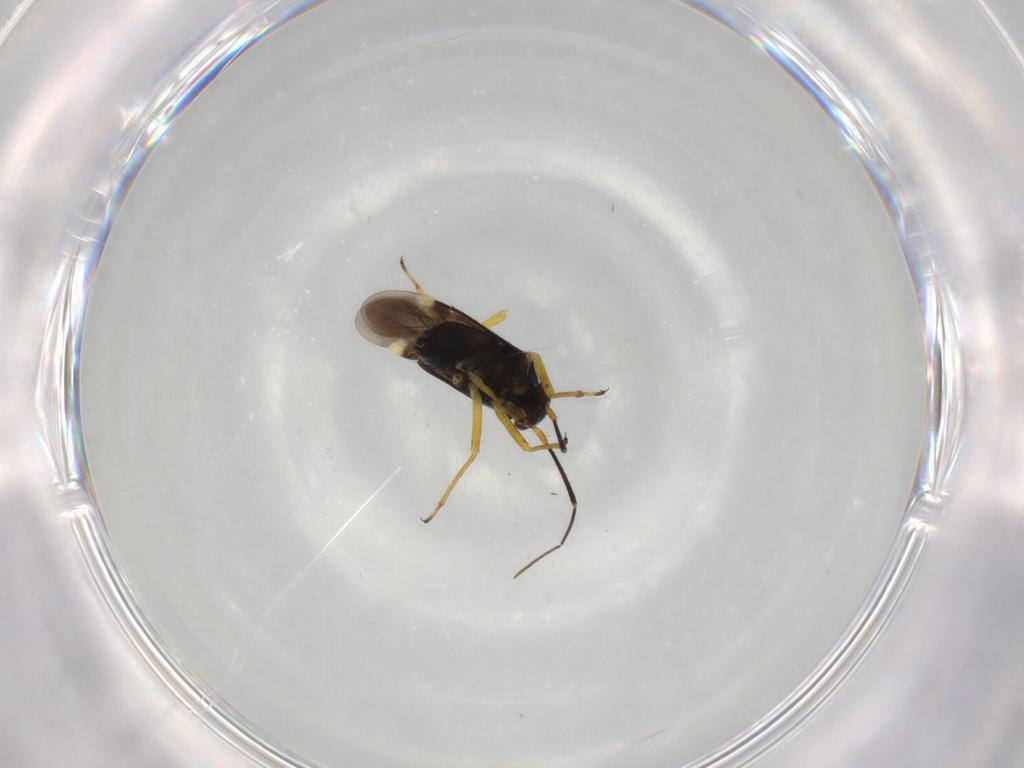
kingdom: Animalia
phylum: Arthropoda
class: Insecta
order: Hemiptera
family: Miridae
